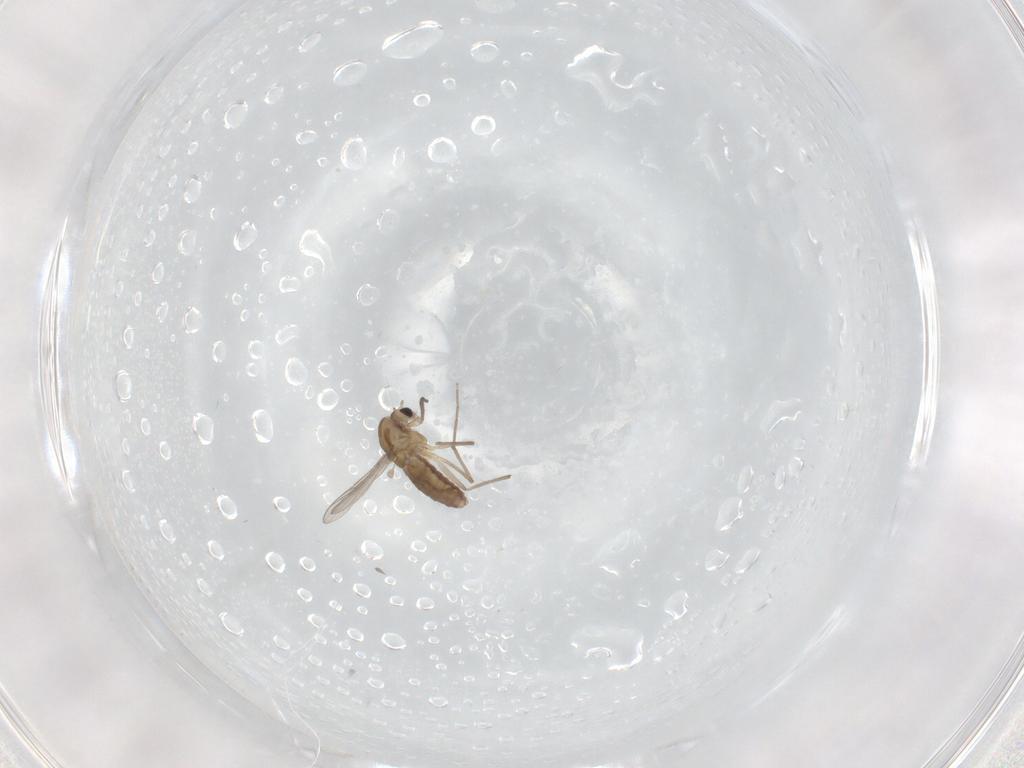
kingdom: Animalia
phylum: Arthropoda
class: Insecta
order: Diptera
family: Chironomidae
